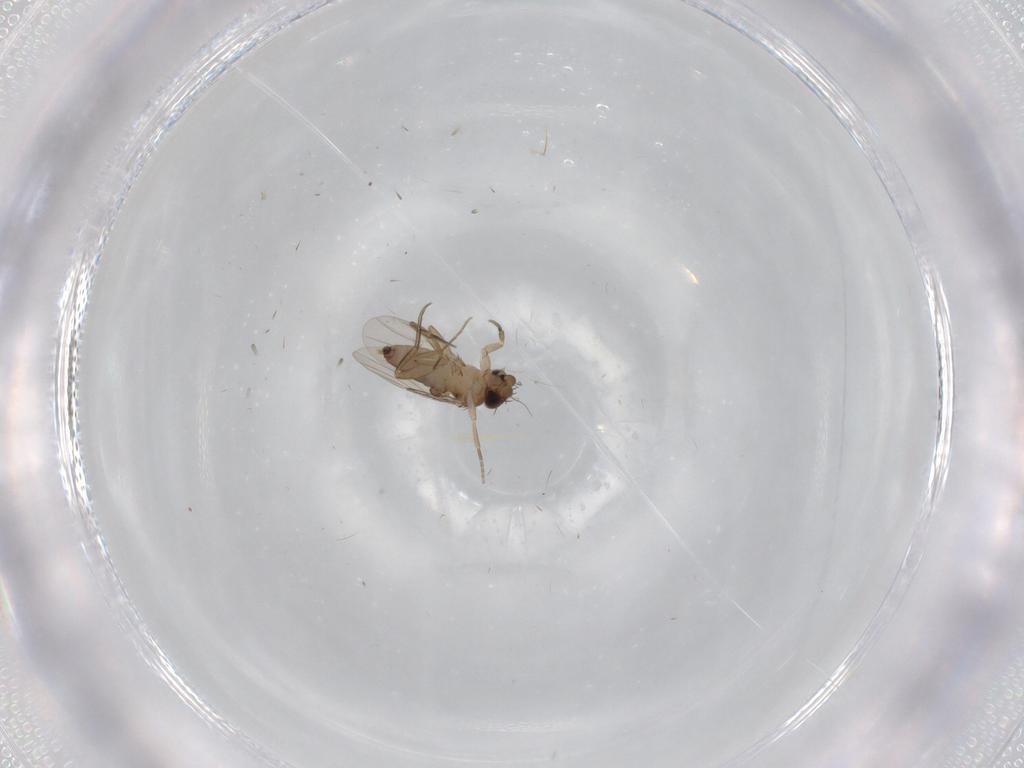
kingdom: Animalia
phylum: Arthropoda
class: Insecta
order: Diptera
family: Phoridae
